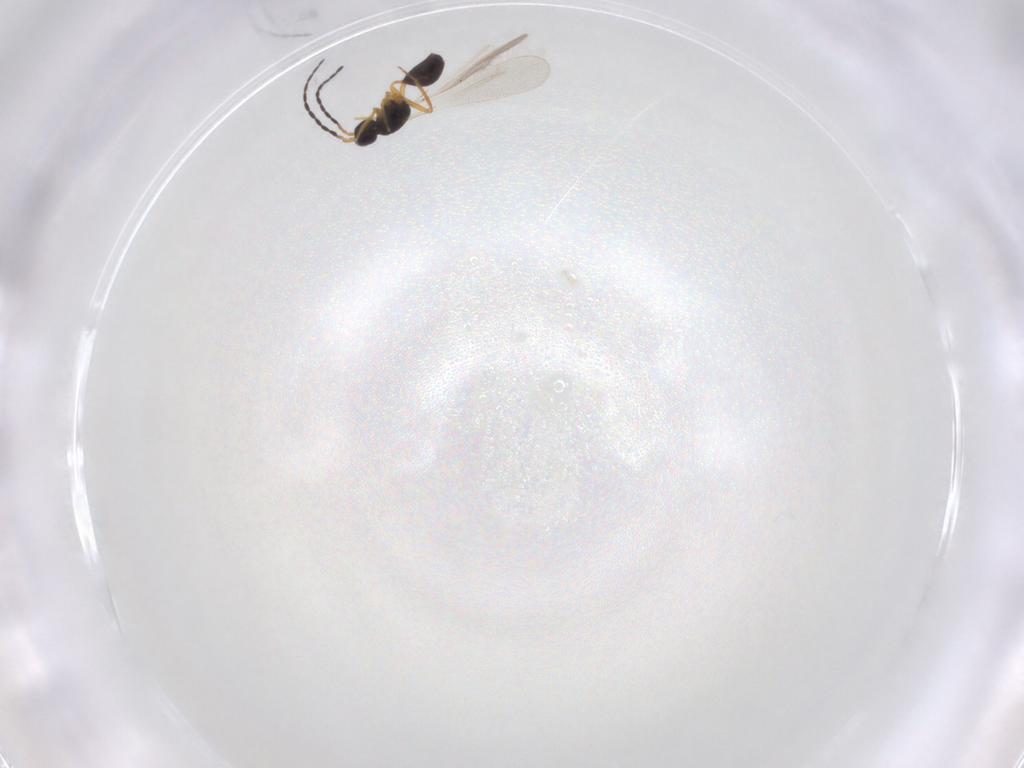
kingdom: Animalia
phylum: Arthropoda
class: Insecta
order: Hymenoptera
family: Mymaridae
